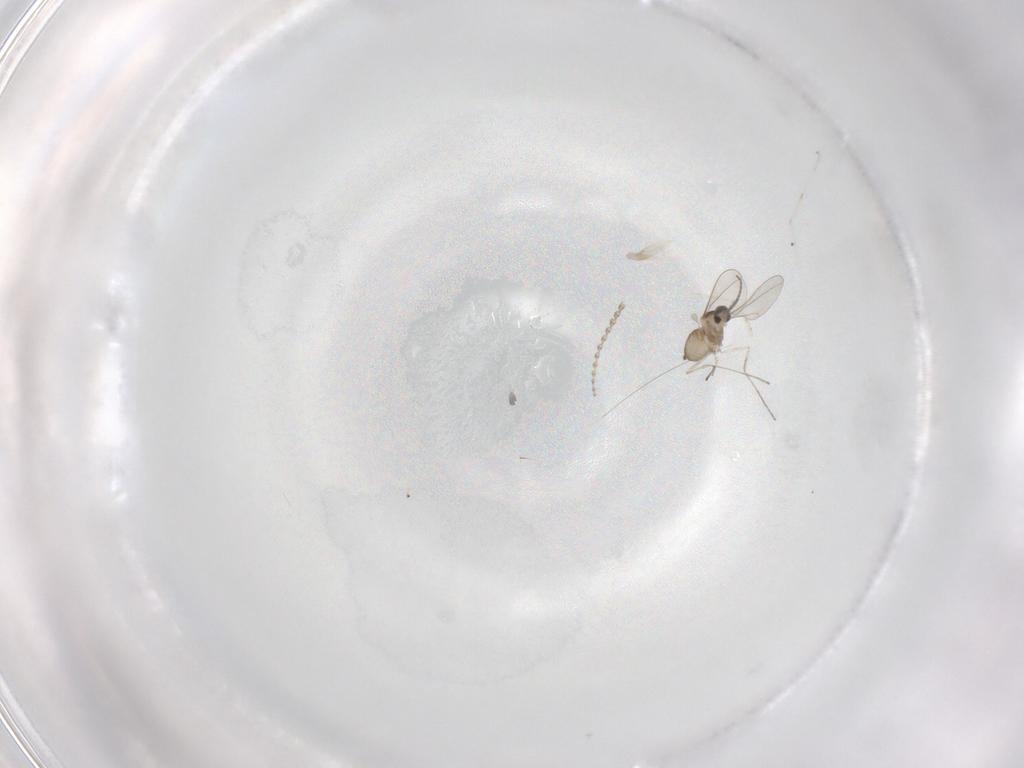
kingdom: Animalia
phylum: Arthropoda
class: Insecta
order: Diptera
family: Cecidomyiidae
